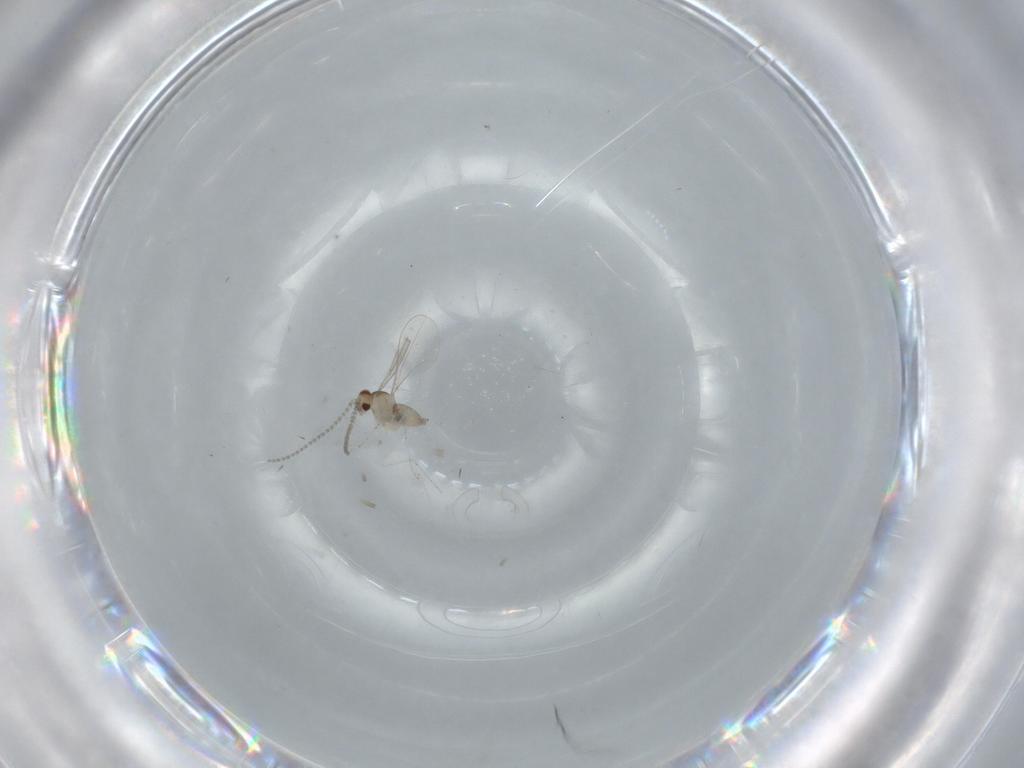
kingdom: Animalia
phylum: Arthropoda
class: Insecta
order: Diptera
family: Cecidomyiidae
